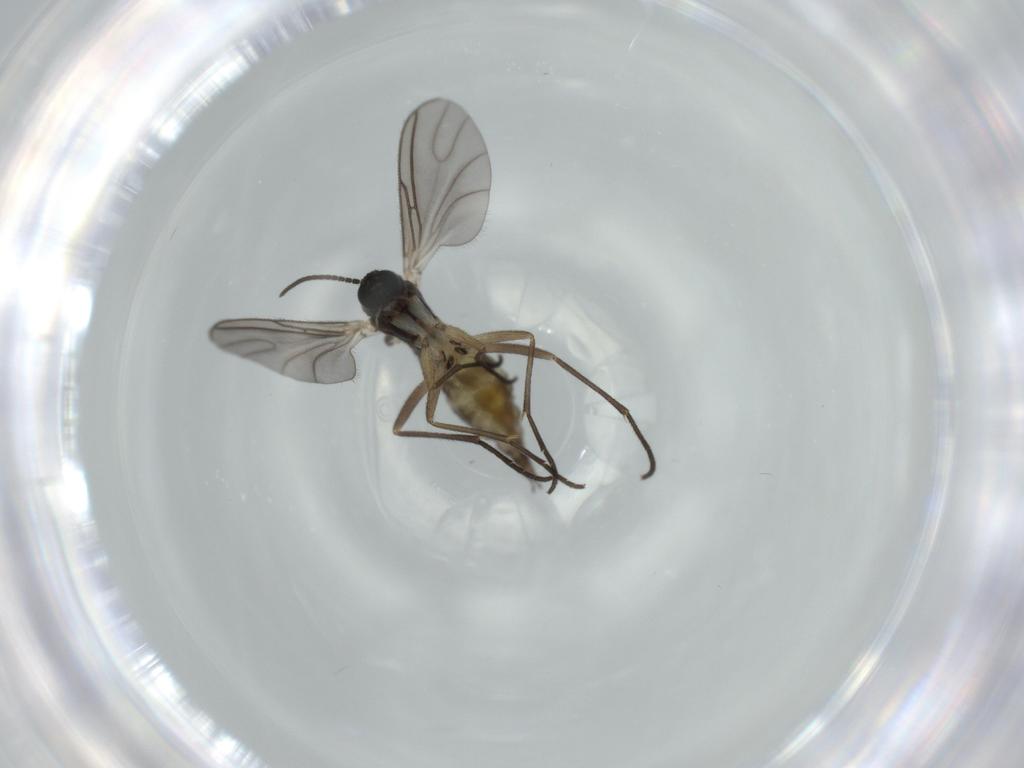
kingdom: Animalia
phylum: Arthropoda
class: Insecta
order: Diptera
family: Sciaridae
